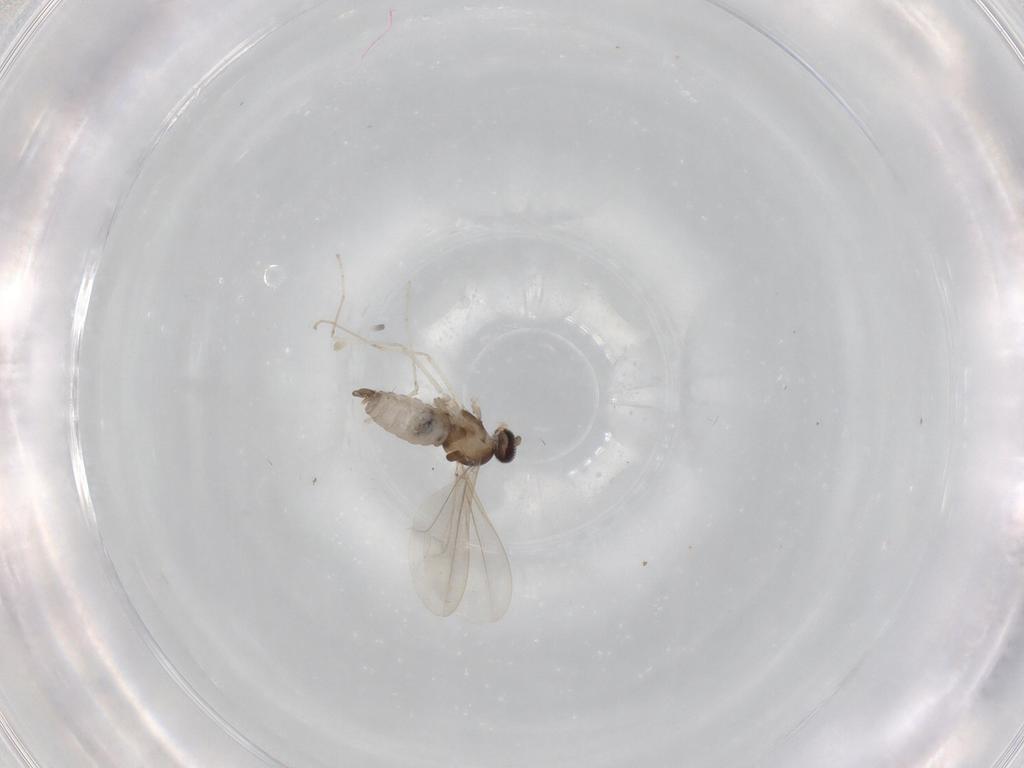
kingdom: Animalia
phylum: Arthropoda
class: Insecta
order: Diptera
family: Cecidomyiidae
